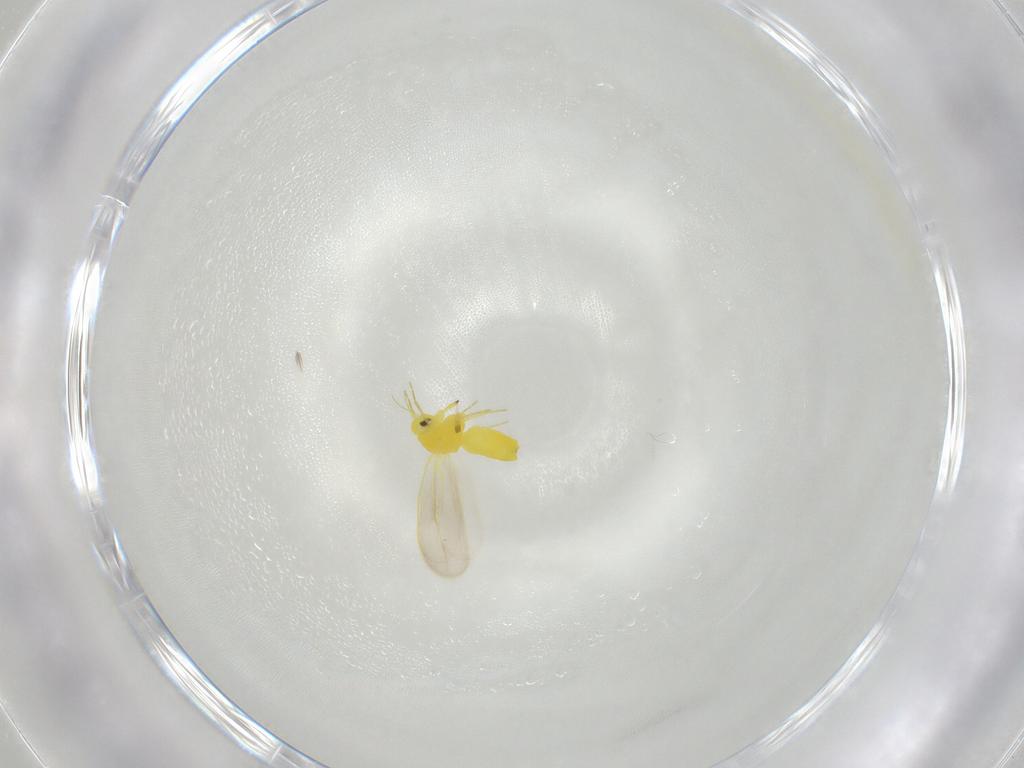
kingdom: Animalia
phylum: Arthropoda
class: Insecta
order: Hemiptera
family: Aleyrodidae
